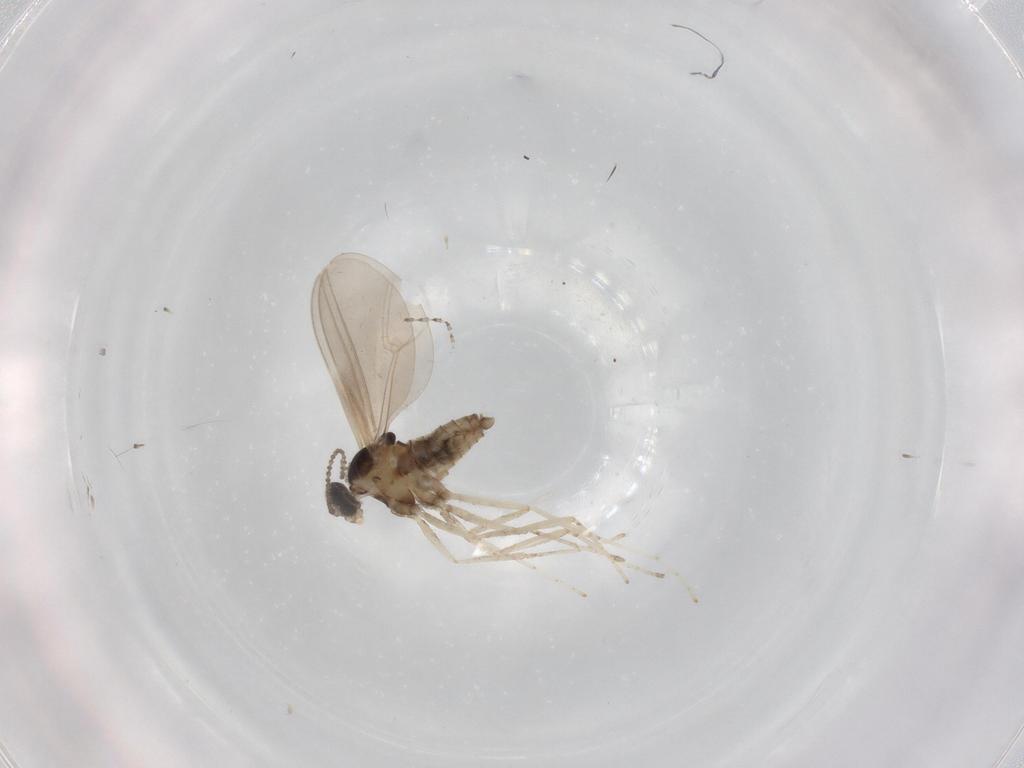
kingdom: Animalia
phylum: Arthropoda
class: Insecta
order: Diptera
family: Cecidomyiidae
